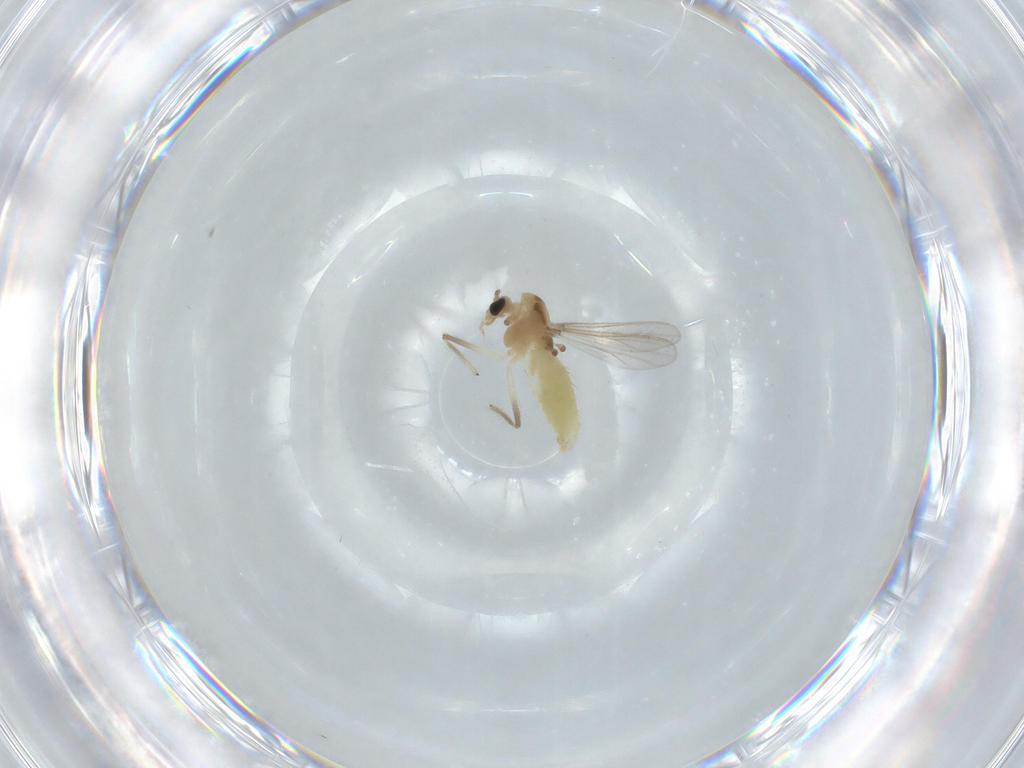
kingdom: Animalia
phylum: Arthropoda
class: Insecta
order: Diptera
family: Chironomidae
